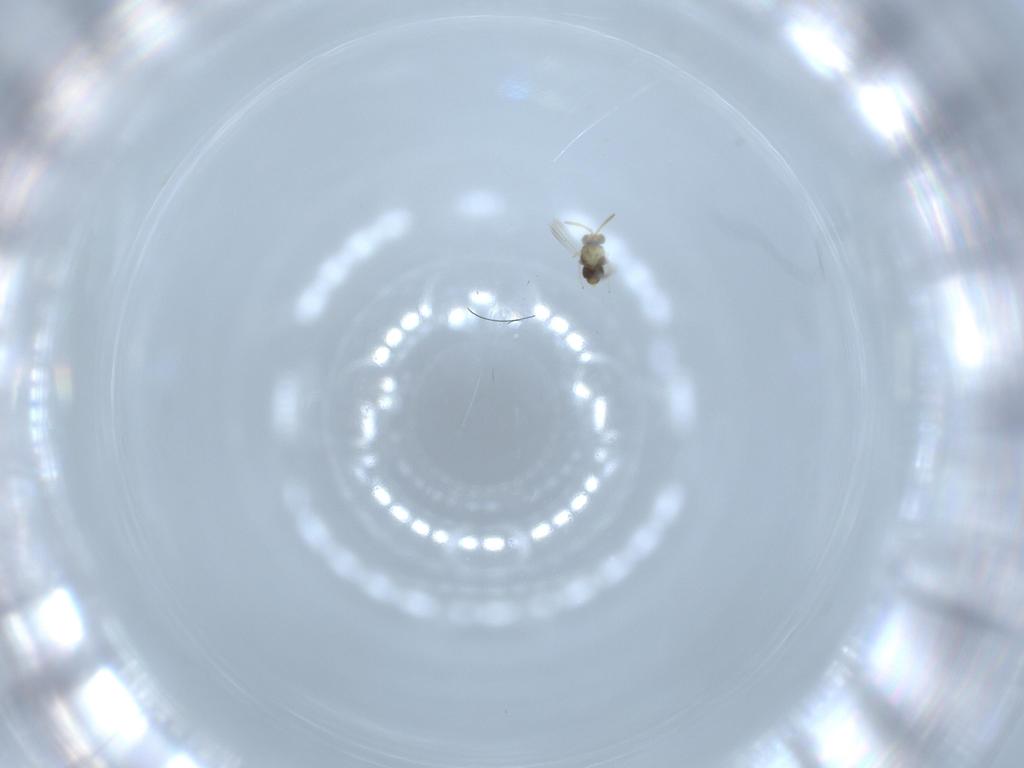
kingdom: Animalia
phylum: Arthropoda
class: Insecta
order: Hymenoptera
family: Aphelinidae
